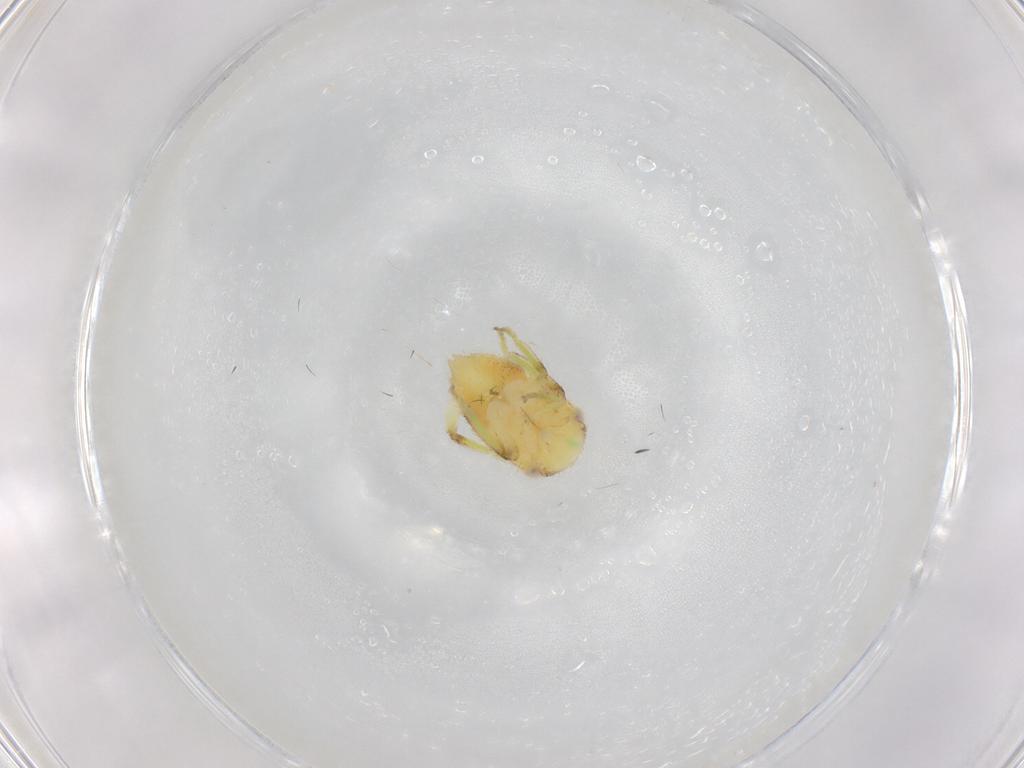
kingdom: Animalia
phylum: Arthropoda
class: Insecta
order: Hemiptera
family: Cicadellidae
